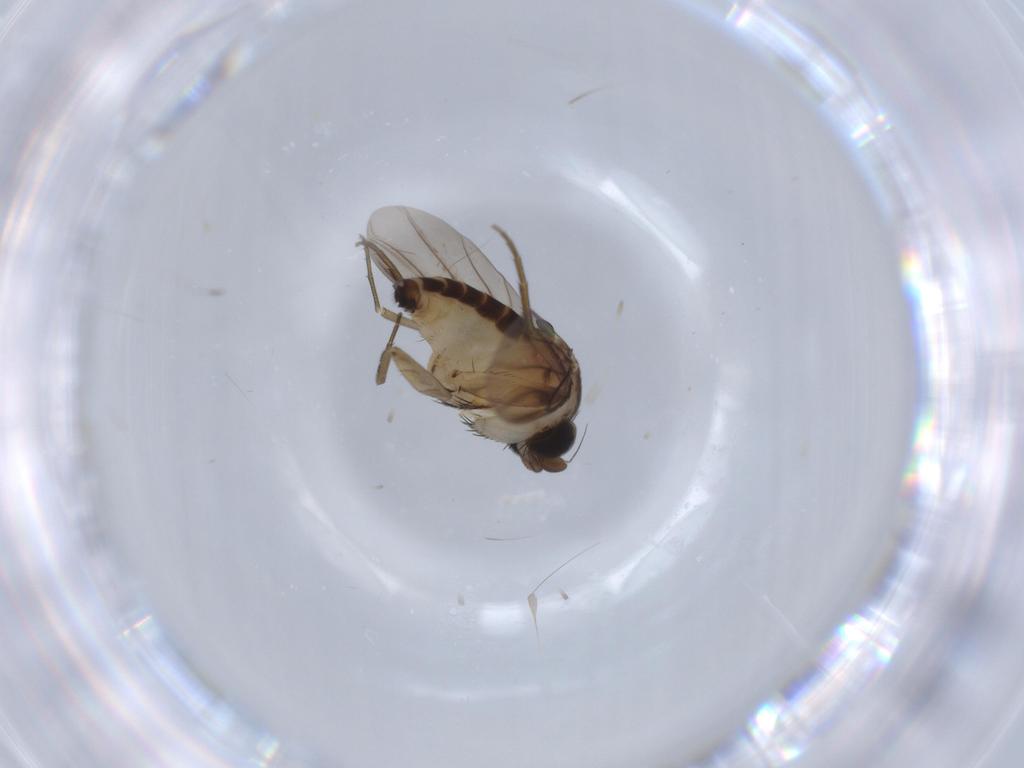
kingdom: Animalia
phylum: Arthropoda
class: Insecta
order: Diptera
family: Phoridae
